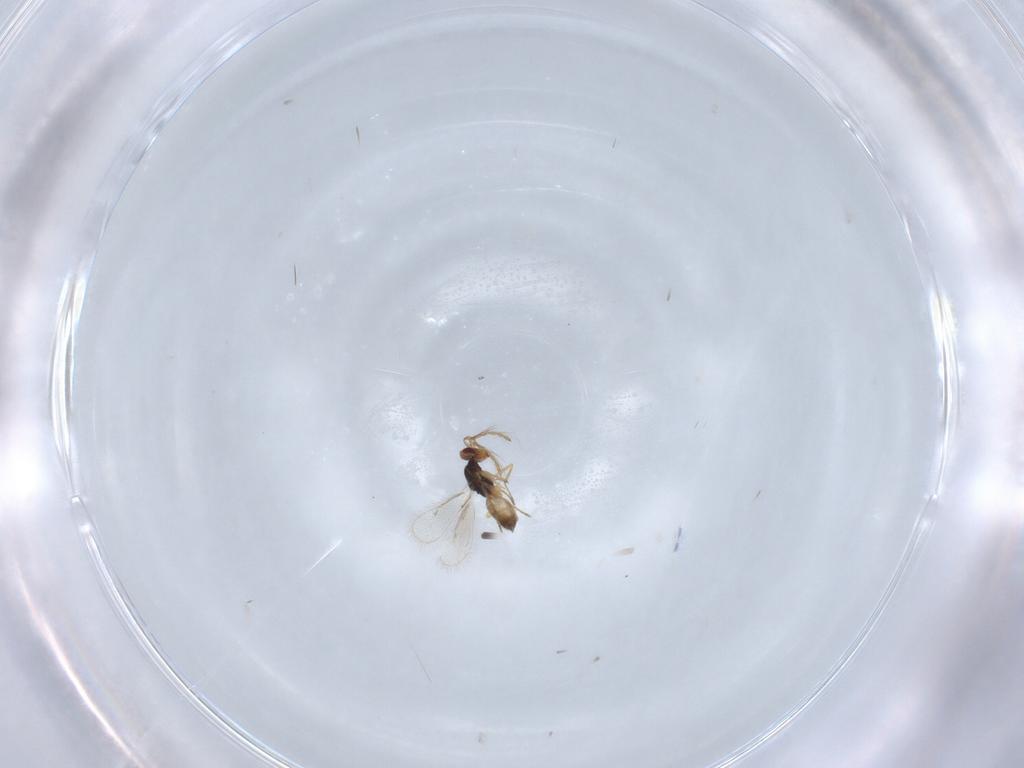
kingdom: Animalia
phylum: Arthropoda
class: Insecta
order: Hymenoptera
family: Eulophidae
